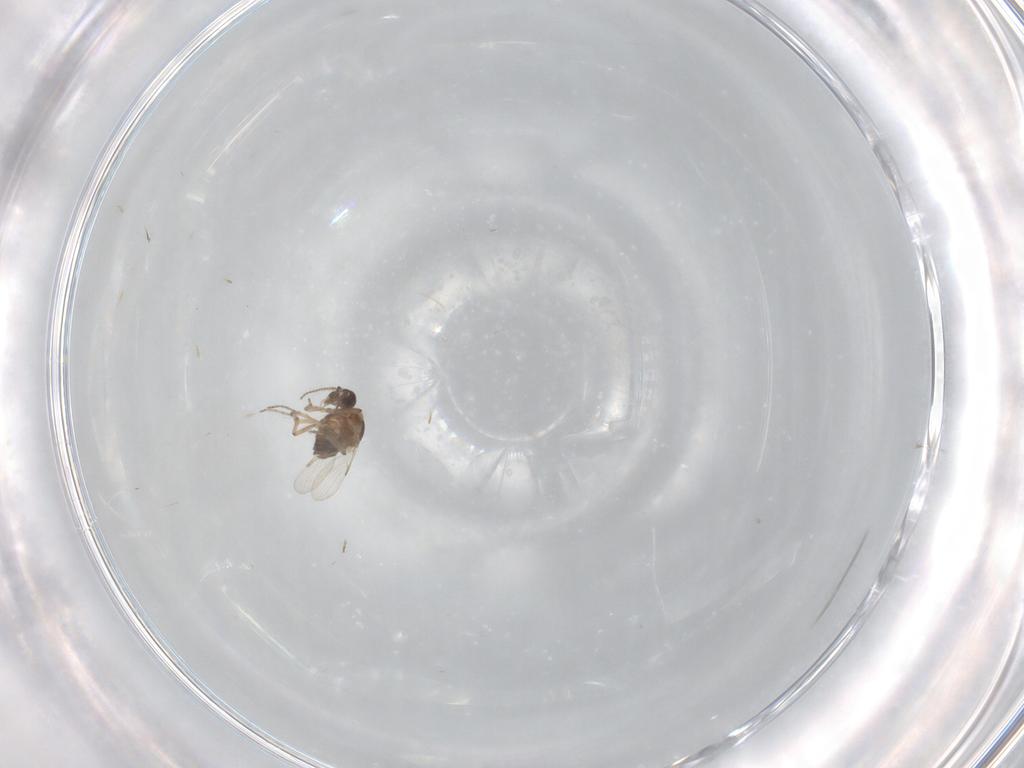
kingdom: Animalia
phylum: Arthropoda
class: Insecta
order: Diptera
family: Ceratopogonidae
